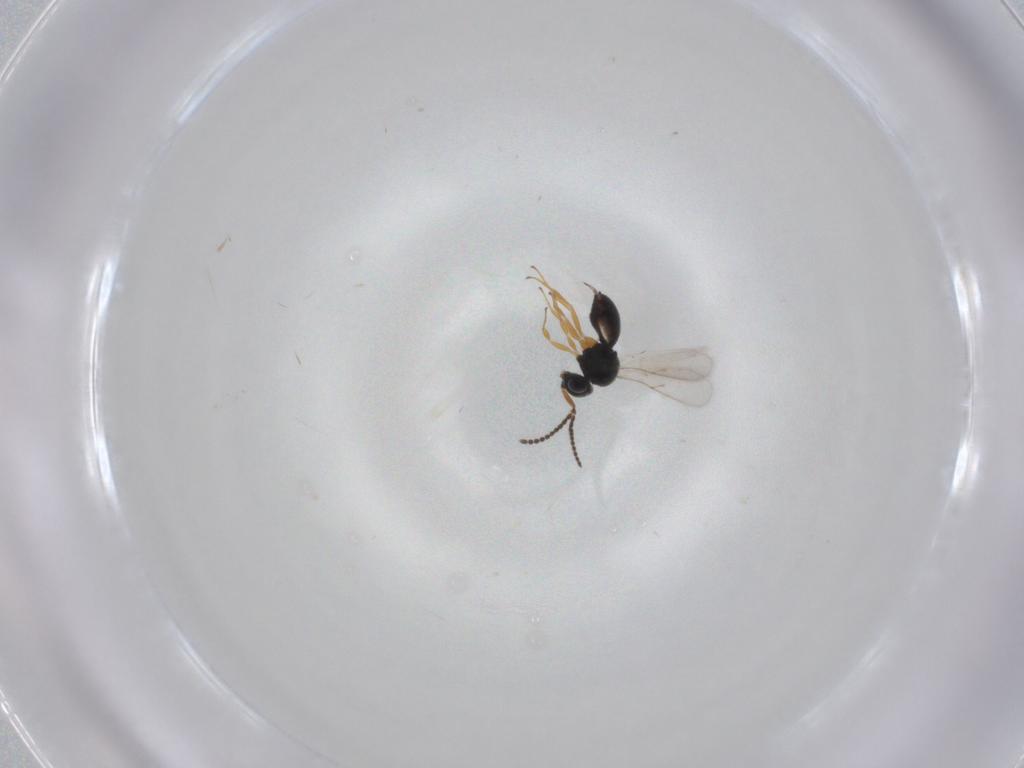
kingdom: Animalia
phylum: Arthropoda
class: Insecta
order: Hymenoptera
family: Scelionidae
